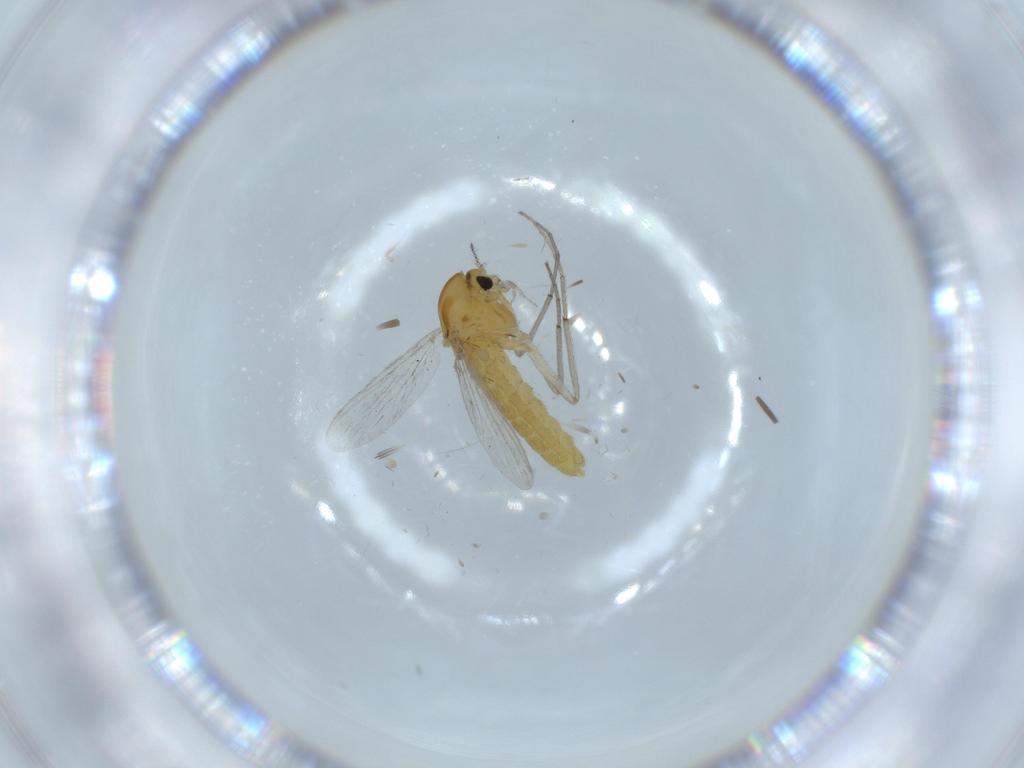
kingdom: Animalia
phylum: Arthropoda
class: Insecta
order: Diptera
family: Chironomidae
